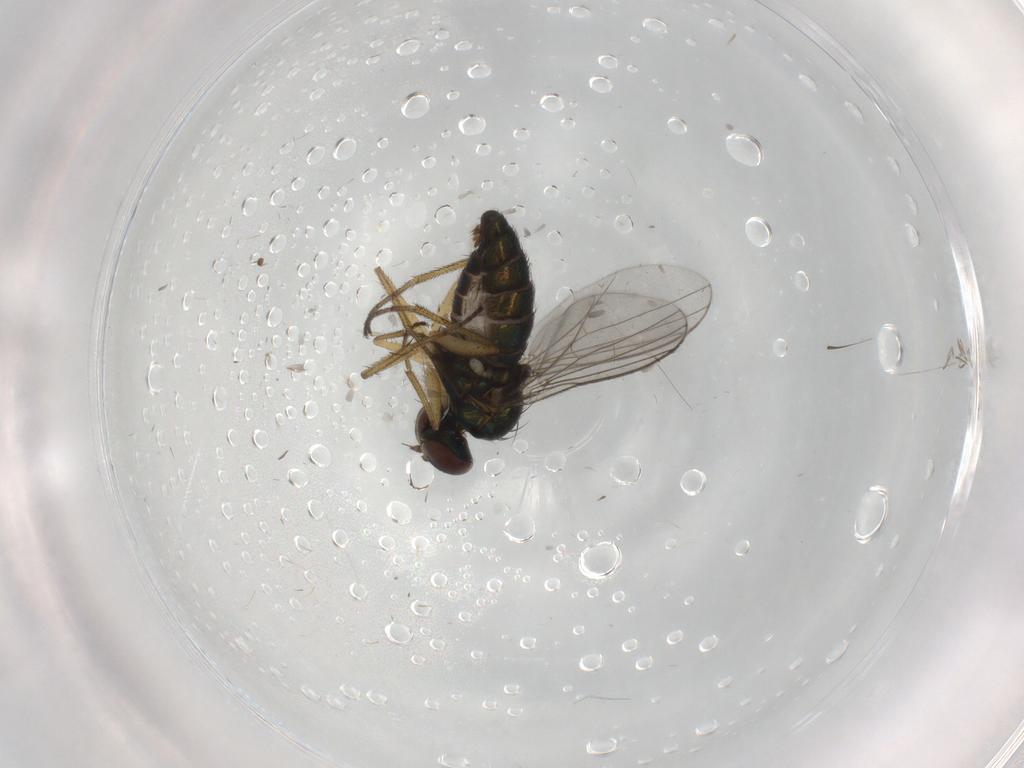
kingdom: Animalia
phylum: Arthropoda
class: Insecta
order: Diptera
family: Dolichopodidae
